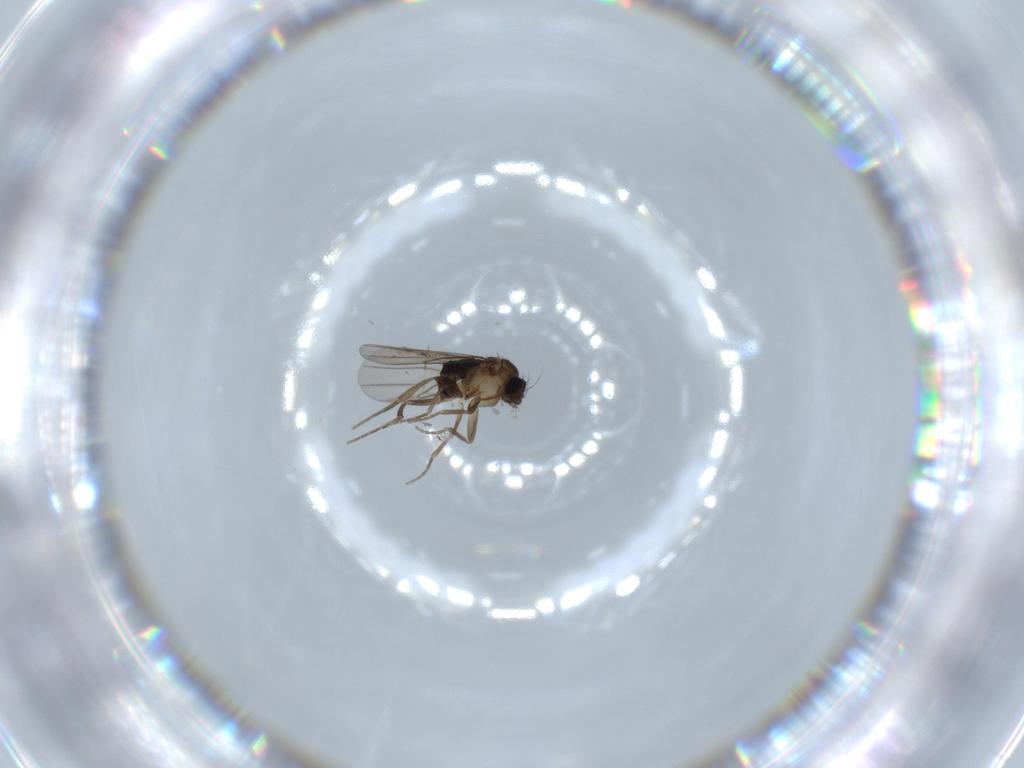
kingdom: Animalia
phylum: Arthropoda
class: Insecta
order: Diptera
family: Phoridae
